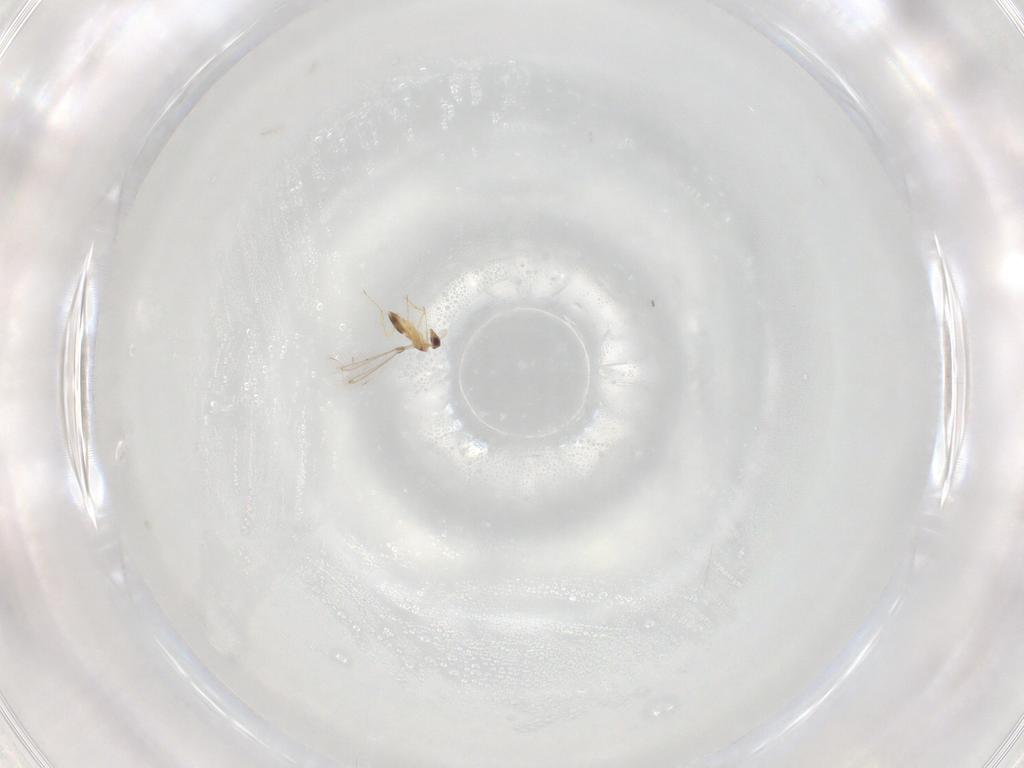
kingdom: Animalia
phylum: Arthropoda
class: Insecta
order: Hymenoptera
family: Mymaridae
